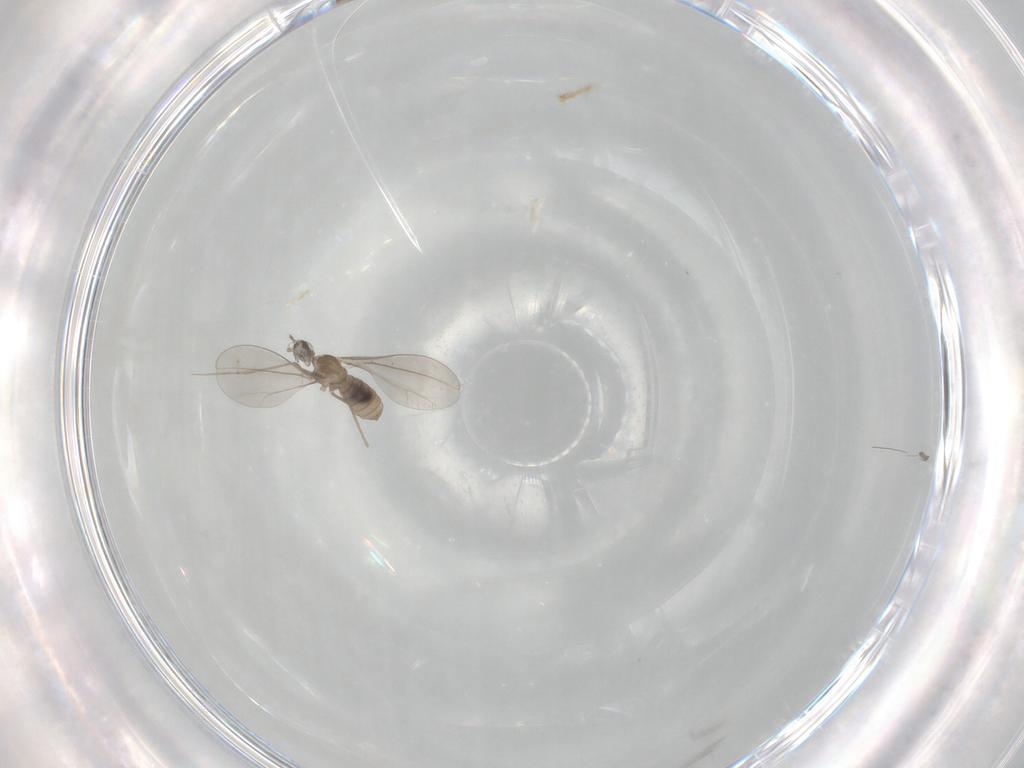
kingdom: Animalia
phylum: Arthropoda
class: Insecta
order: Diptera
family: Cecidomyiidae
